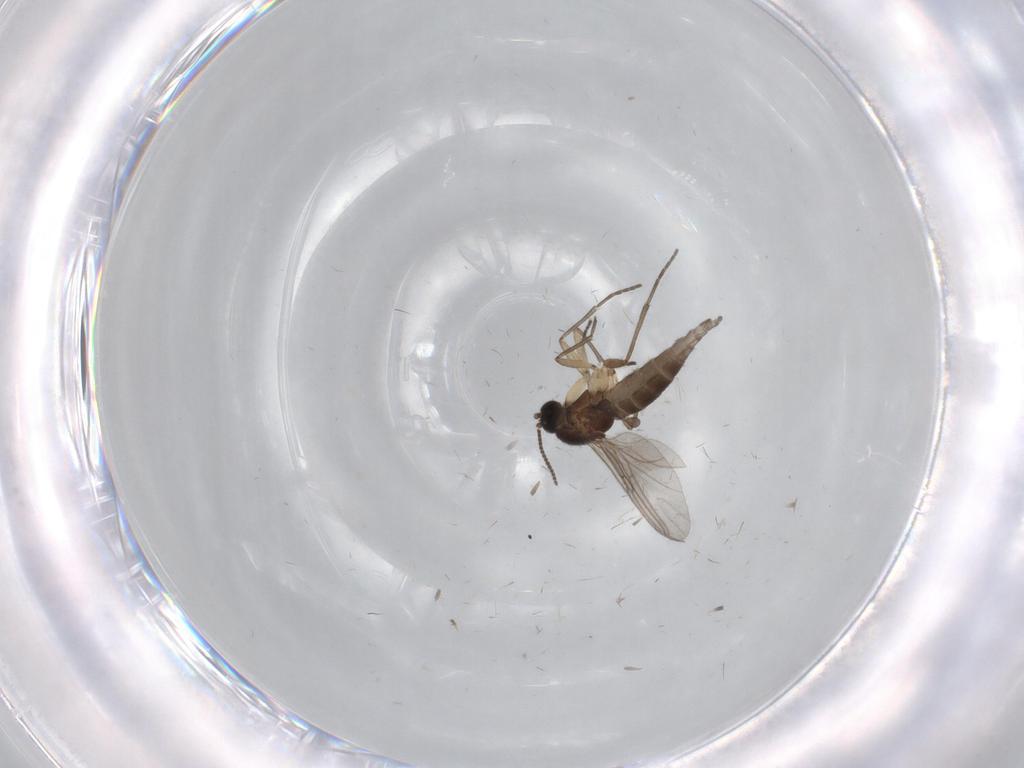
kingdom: Animalia
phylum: Arthropoda
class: Insecta
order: Diptera
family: Sciaridae
